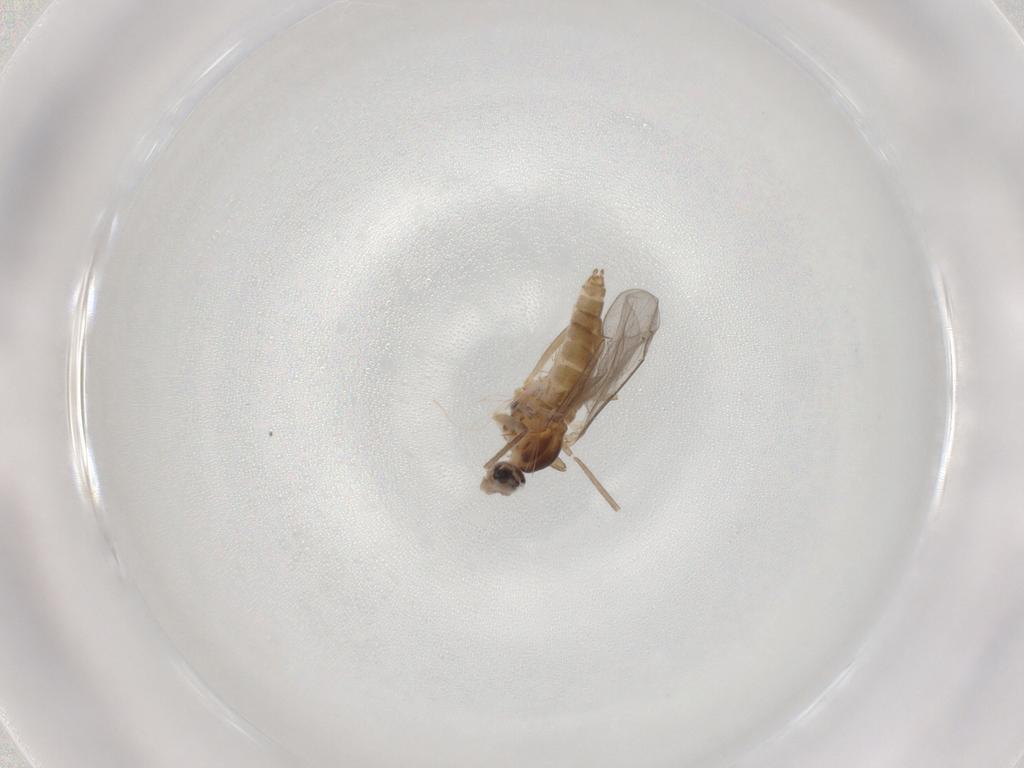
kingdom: Animalia
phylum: Arthropoda
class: Insecta
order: Diptera
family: Cecidomyiidae
